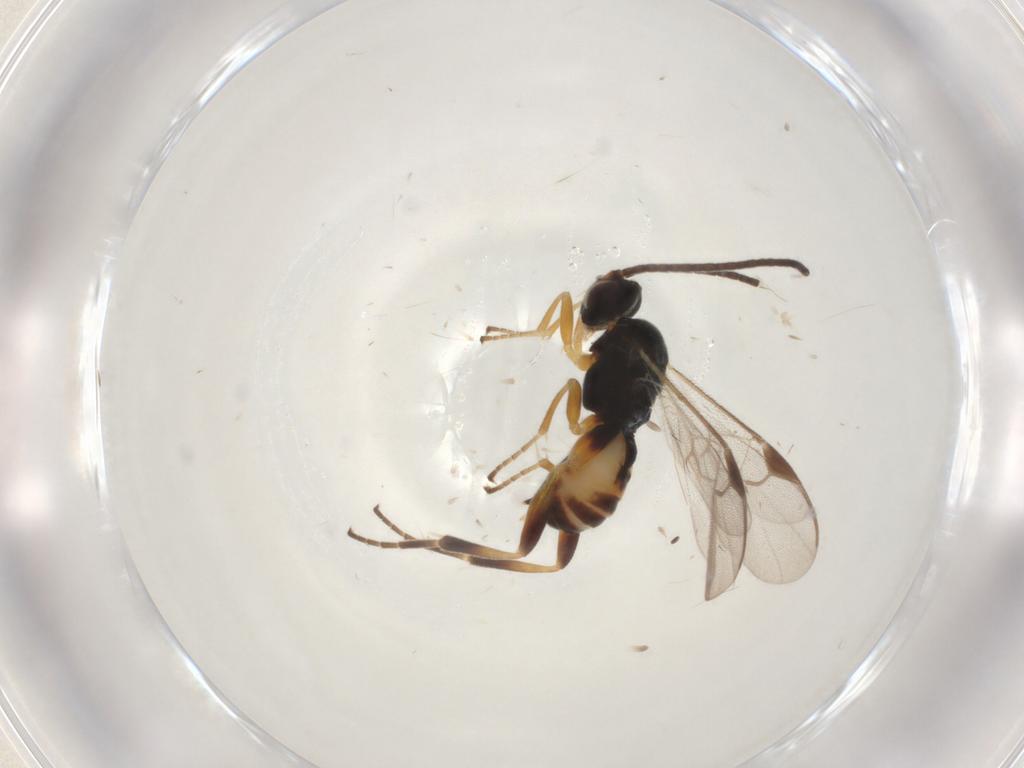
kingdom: Animalia
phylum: Arthropoda
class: Insecta
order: Hymenoptera
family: Braconidae
